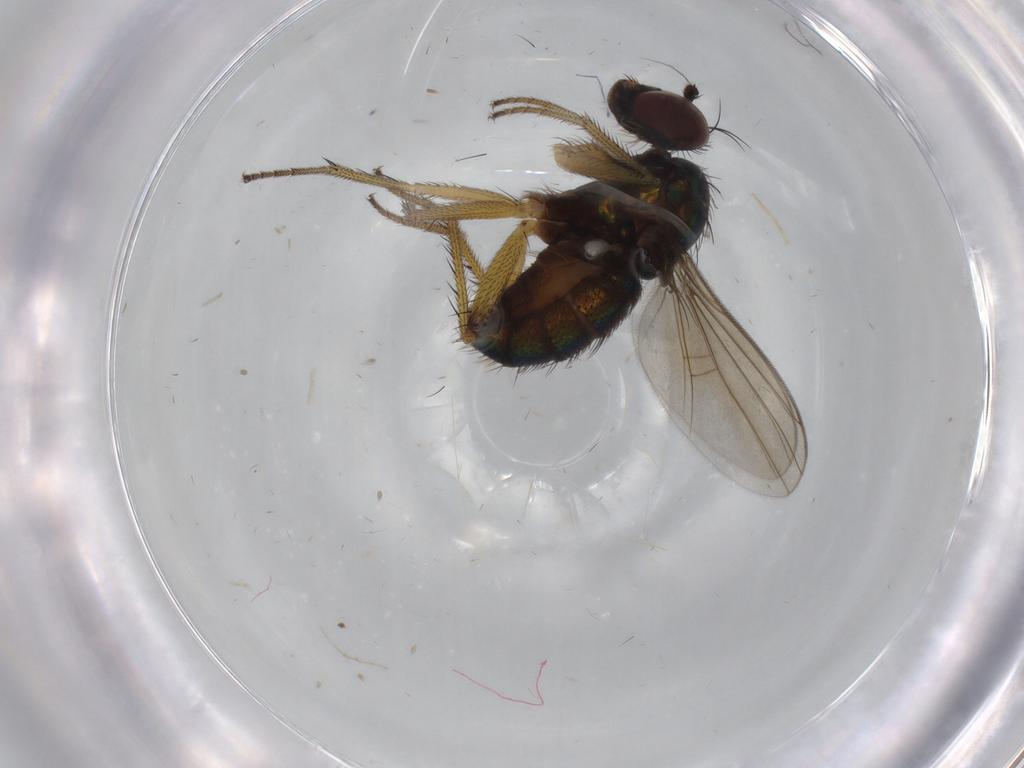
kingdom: Animalia
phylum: Arthropoda
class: Insecta
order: Diptera
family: Dolichopodidae
